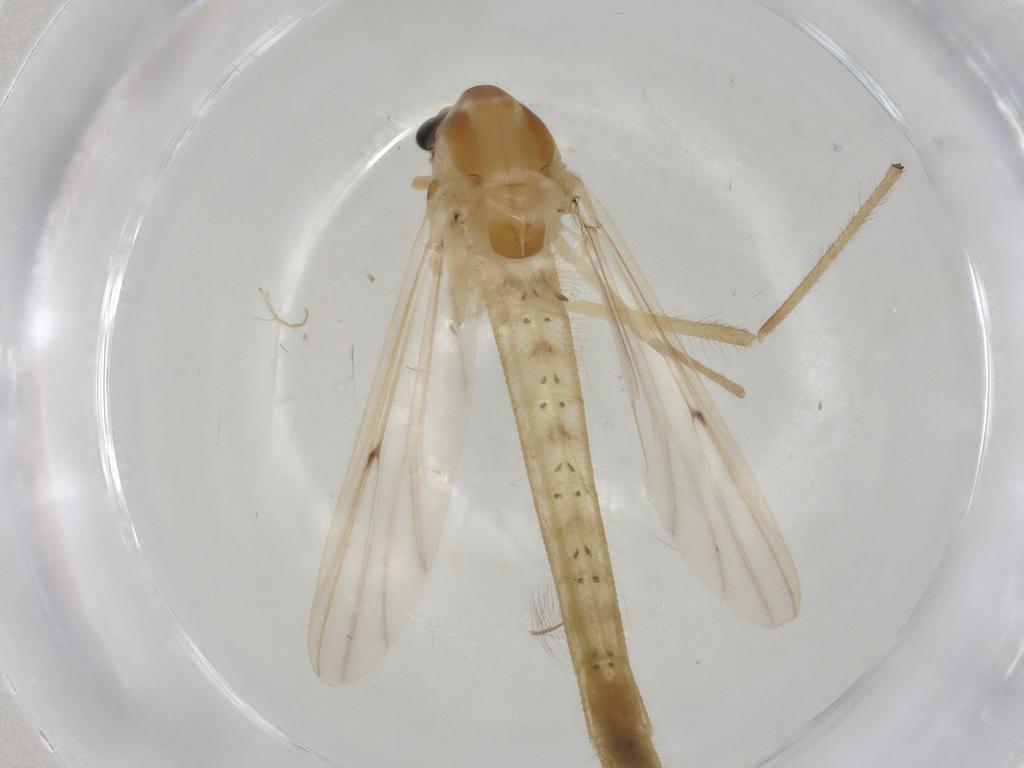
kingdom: Animalia
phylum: Arthropoda
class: Insecta
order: Diptera
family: Chironomidae
